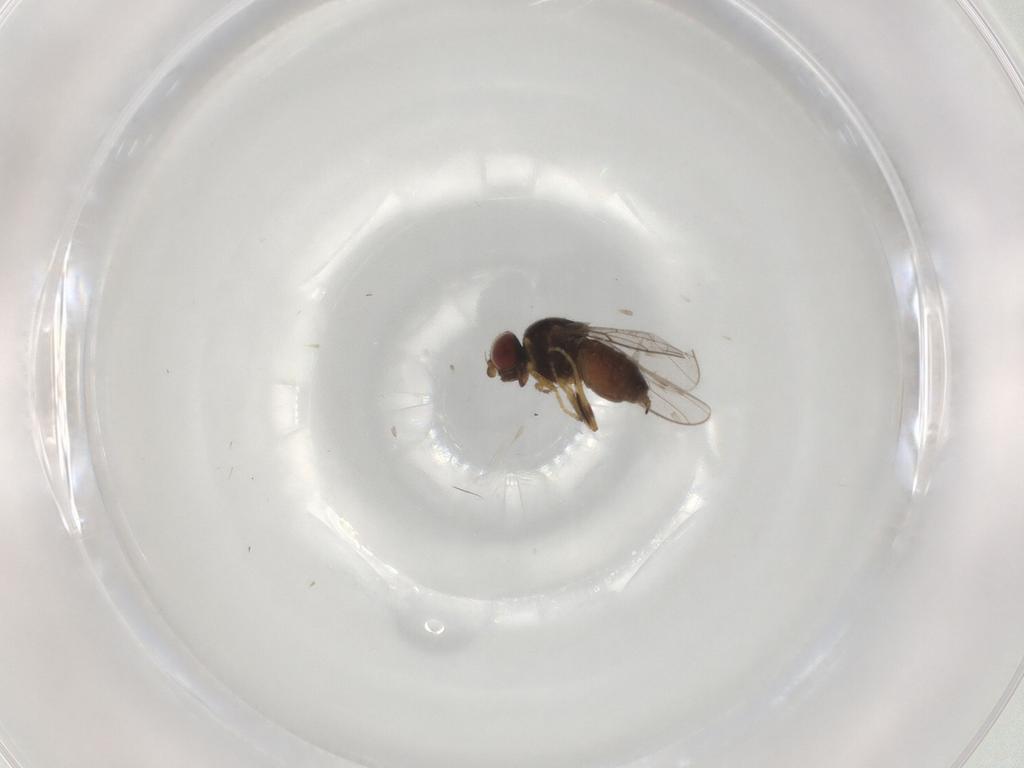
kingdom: Animalia
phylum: Arthropoda
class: Insecta
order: Diptera
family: Chloropidae
